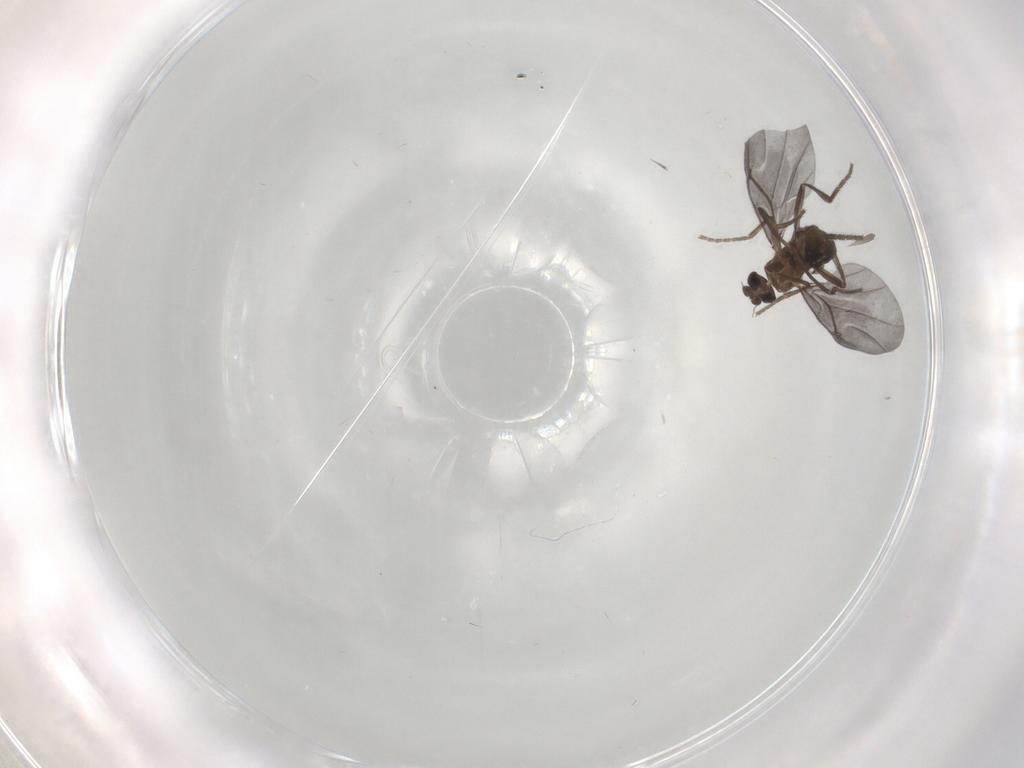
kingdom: Animalia
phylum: Arthropoda
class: Insecta
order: Diptera
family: Phoridae
